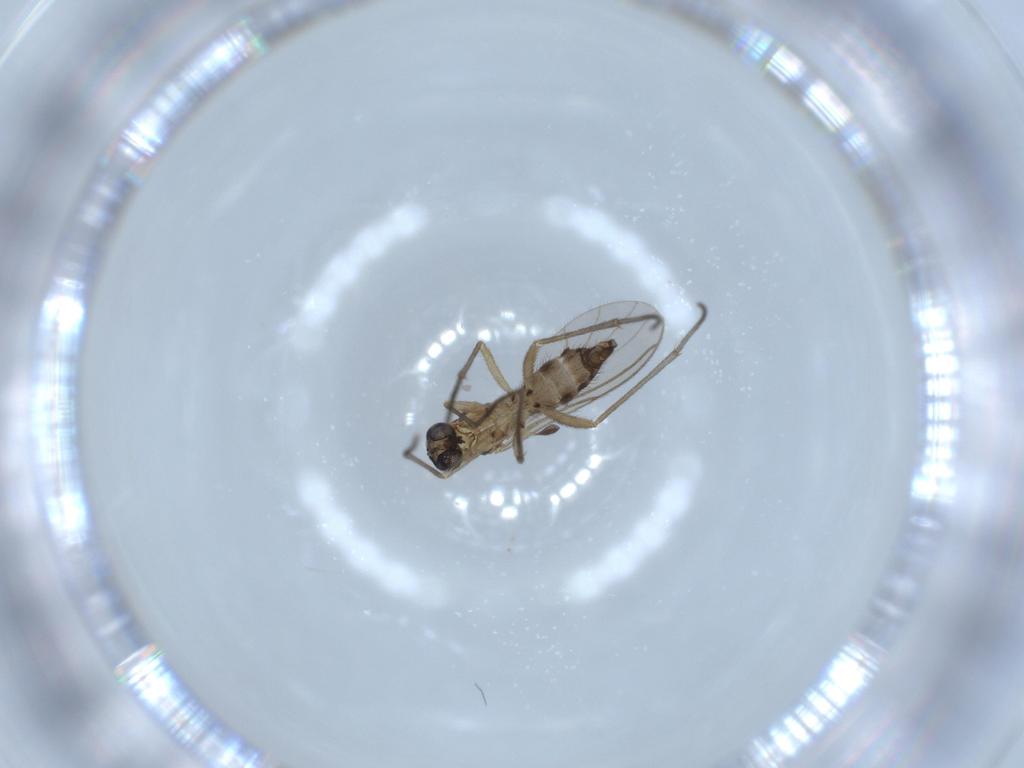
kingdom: Animalia
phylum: Arthropoda
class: Insecta
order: Diptera
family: Sciaridae
